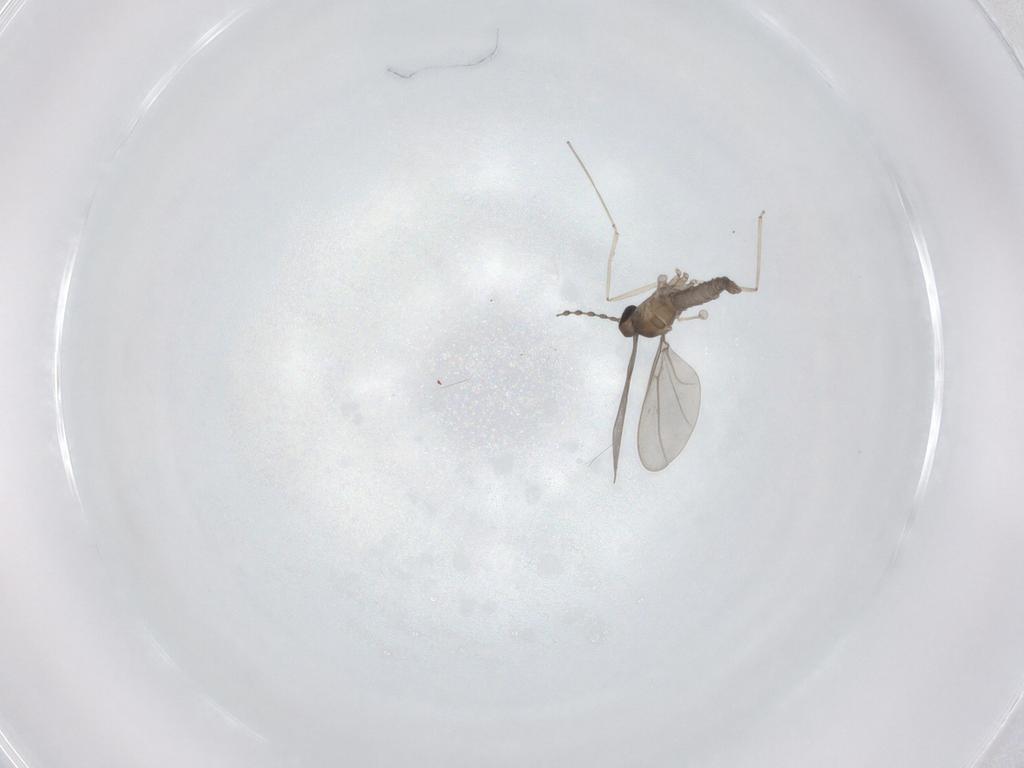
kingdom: Animalia
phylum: Arthropoda
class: Insecta
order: Diptera
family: Cecidomyiidae
